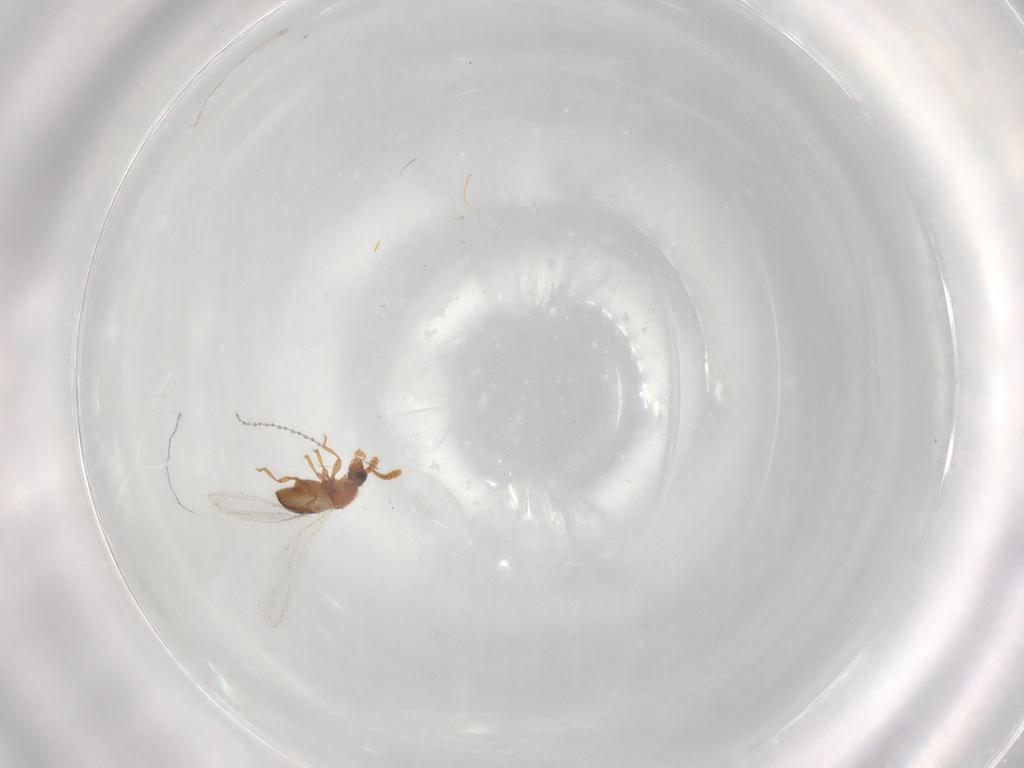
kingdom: Animalia
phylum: Arthropoda
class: Insecta
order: Coleoptera
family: Staphylinidae
